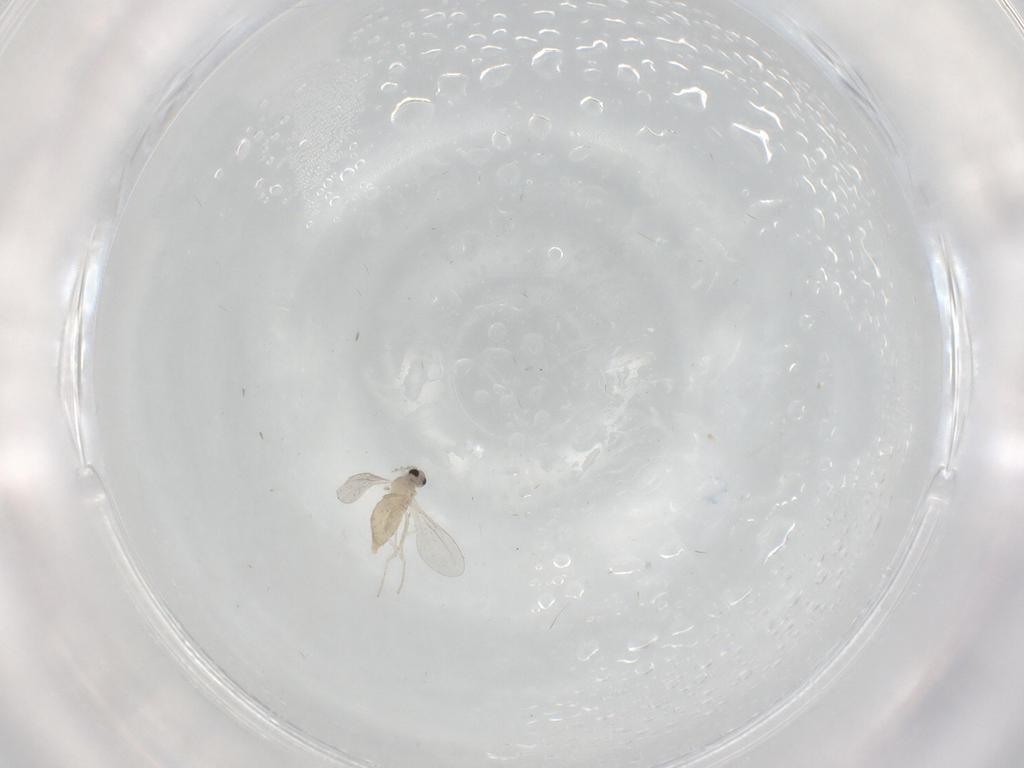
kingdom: Animalia
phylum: Arthropoda
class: Insecta
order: Diptera
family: Cecidomyiidae
